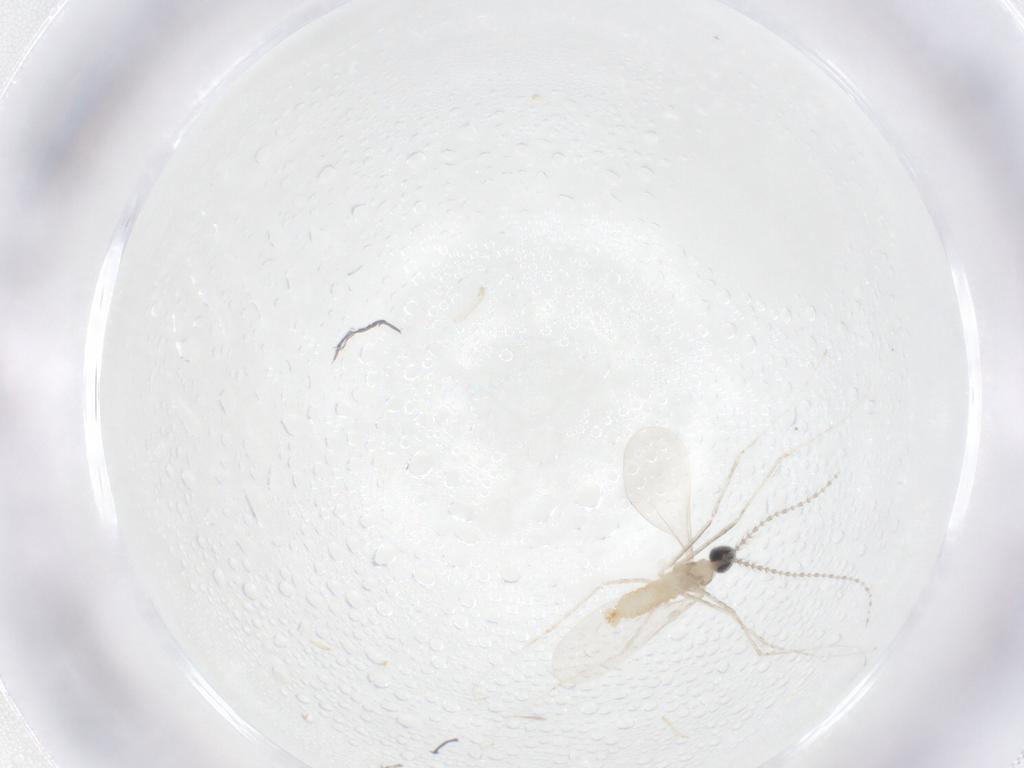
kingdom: Animalia
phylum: Arthropoda
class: Insecta
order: Diptera
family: Cecidomyiidae
